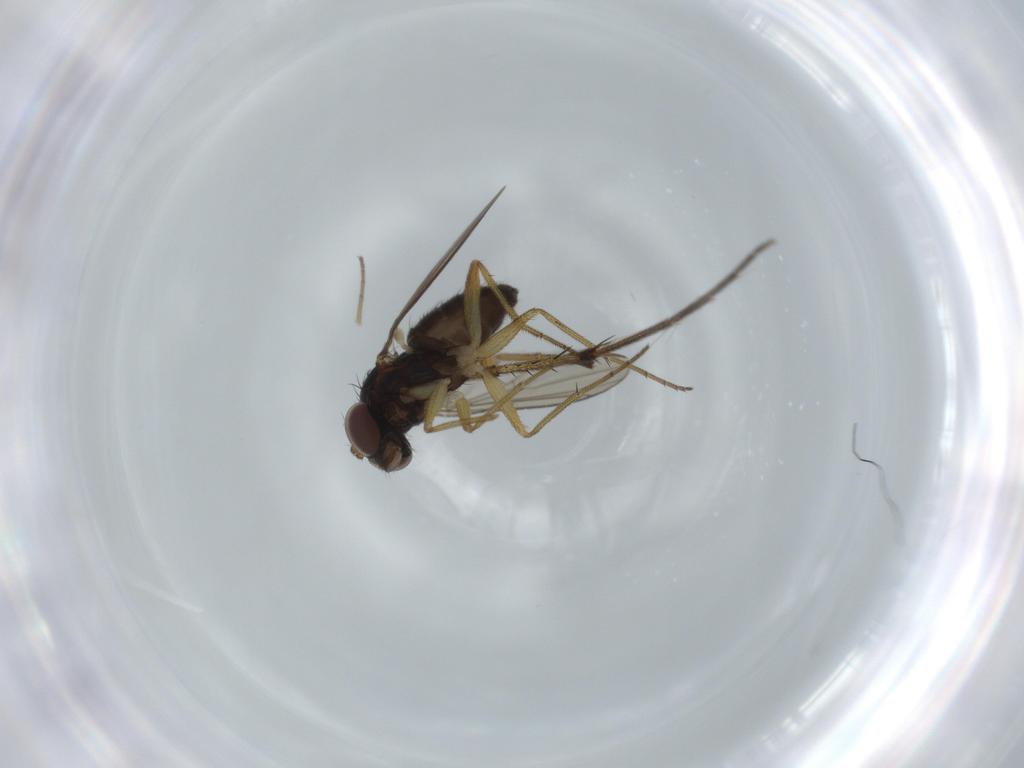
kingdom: Animalia
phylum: Arthropoda
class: Insecta
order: Diptera
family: Dolichopodidae
